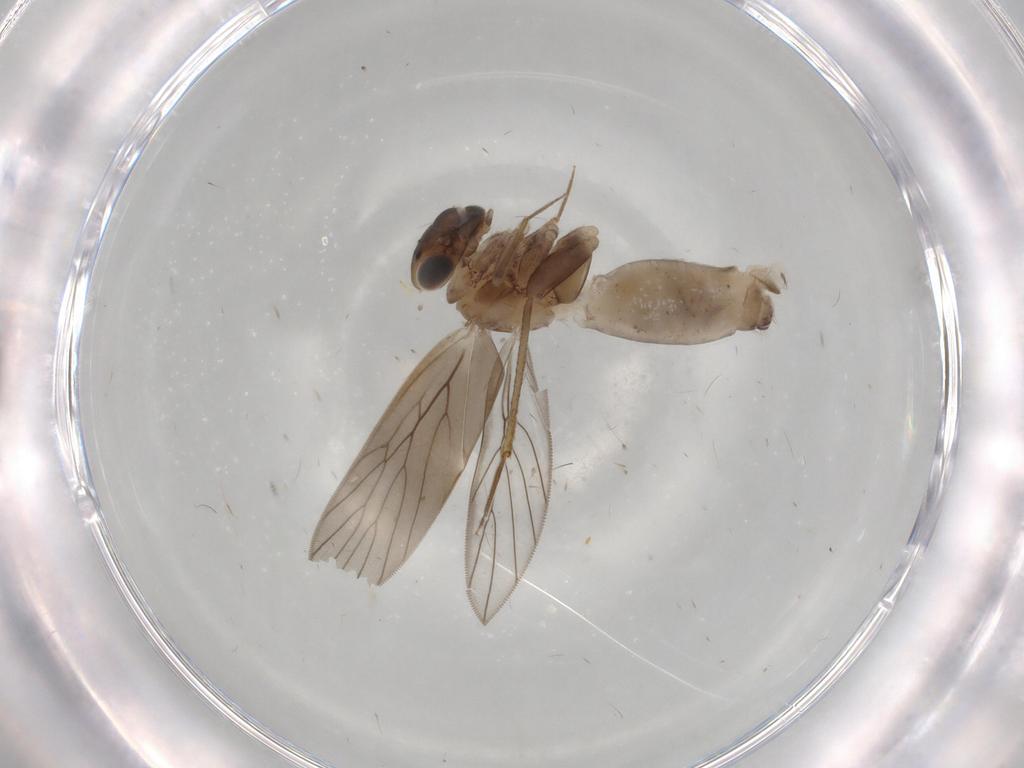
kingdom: Animalia
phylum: Arthropoda
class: Insecta
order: Psocodea
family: Lepidopsocidae
